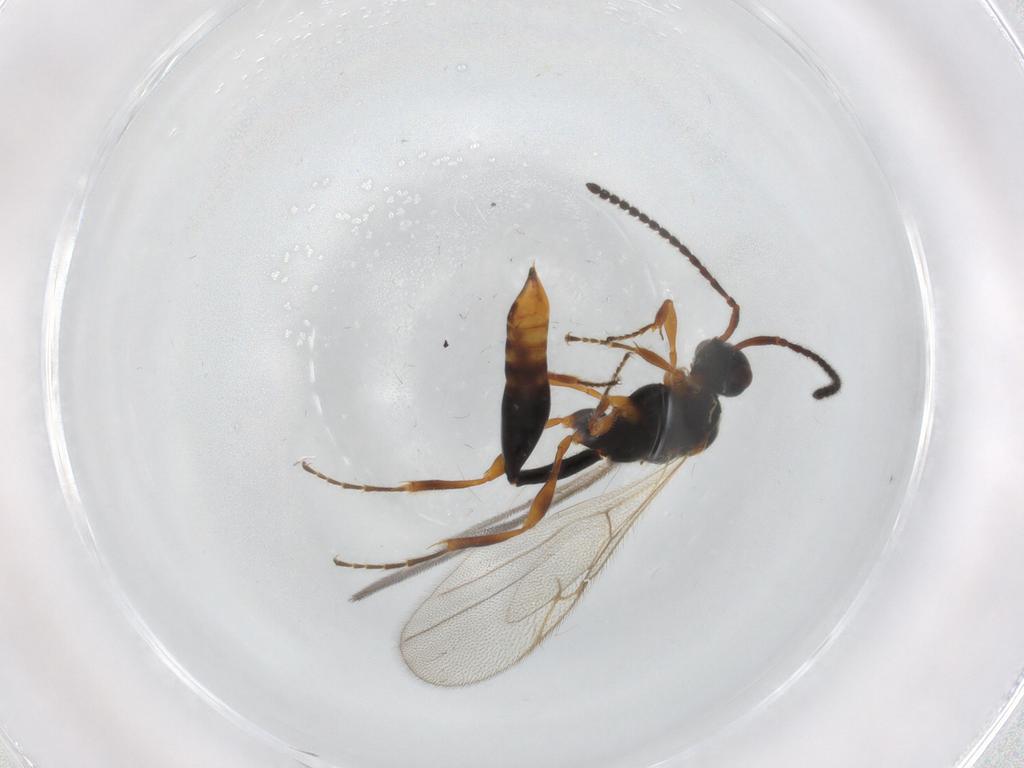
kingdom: Animalia
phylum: Arthropoda
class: Insecta
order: Hymenoptera
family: Diapriidae
